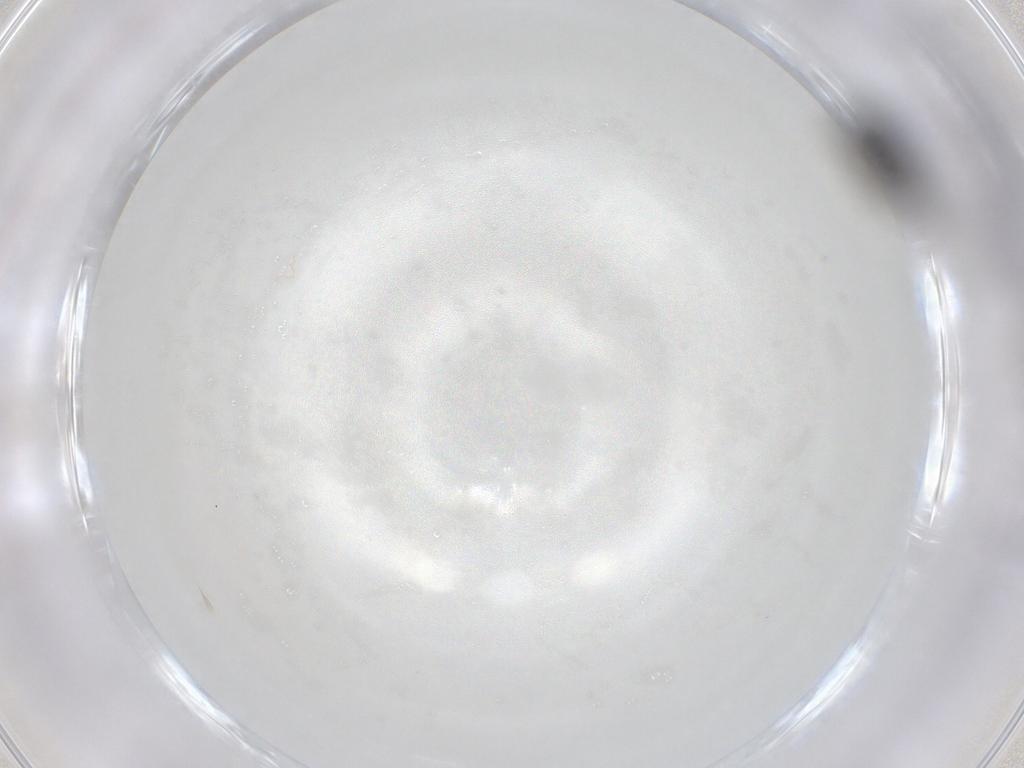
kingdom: Animalia
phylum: Arthropoda
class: Insecta
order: Diptera
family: Chironomidae
